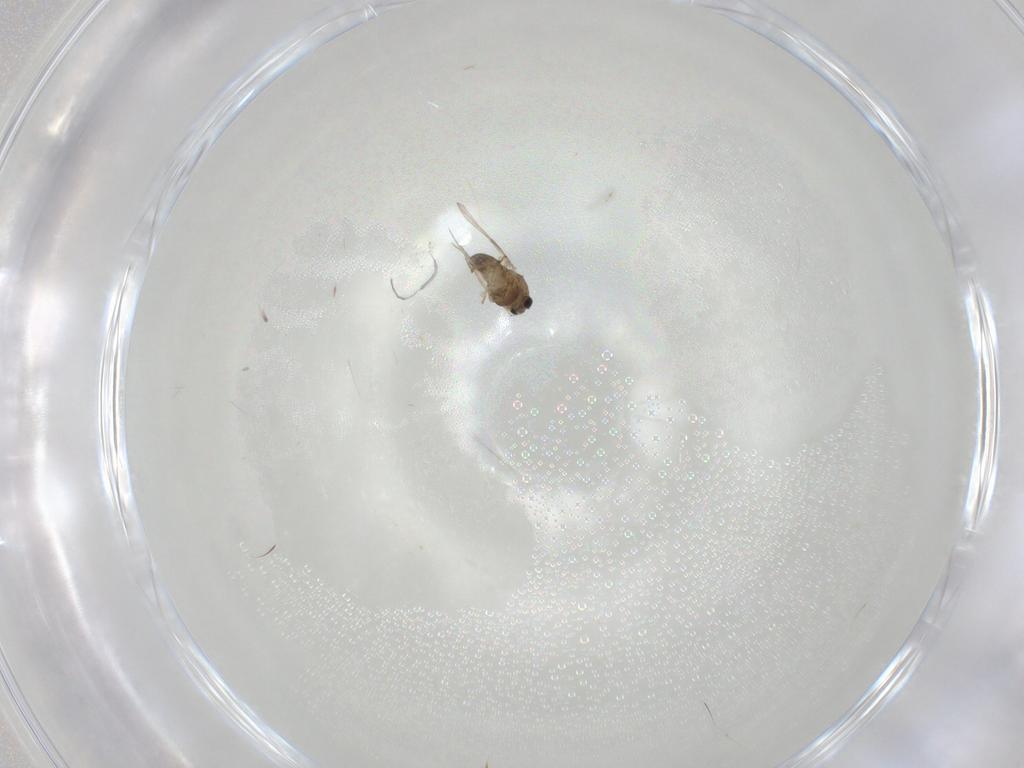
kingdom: Animalia
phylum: Arthropoda
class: Insecta
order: Diptera
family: Chironomidae
